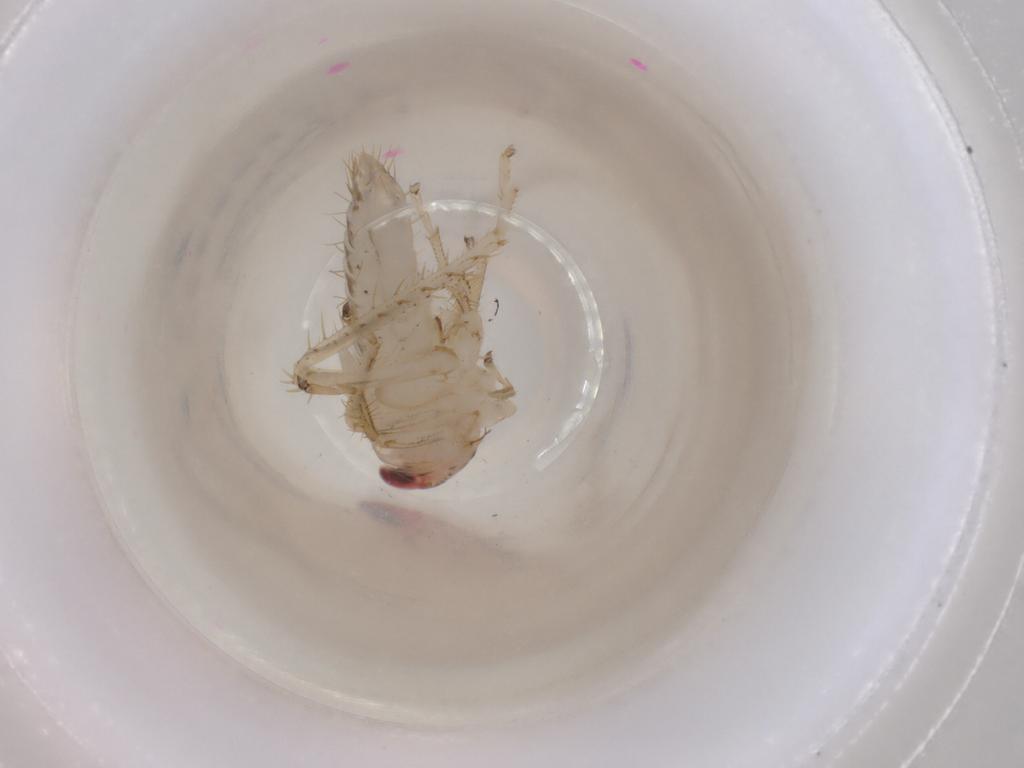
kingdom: Animalia
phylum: Arthropoda
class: Insecta
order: Hemiptera
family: Cicadellidae
